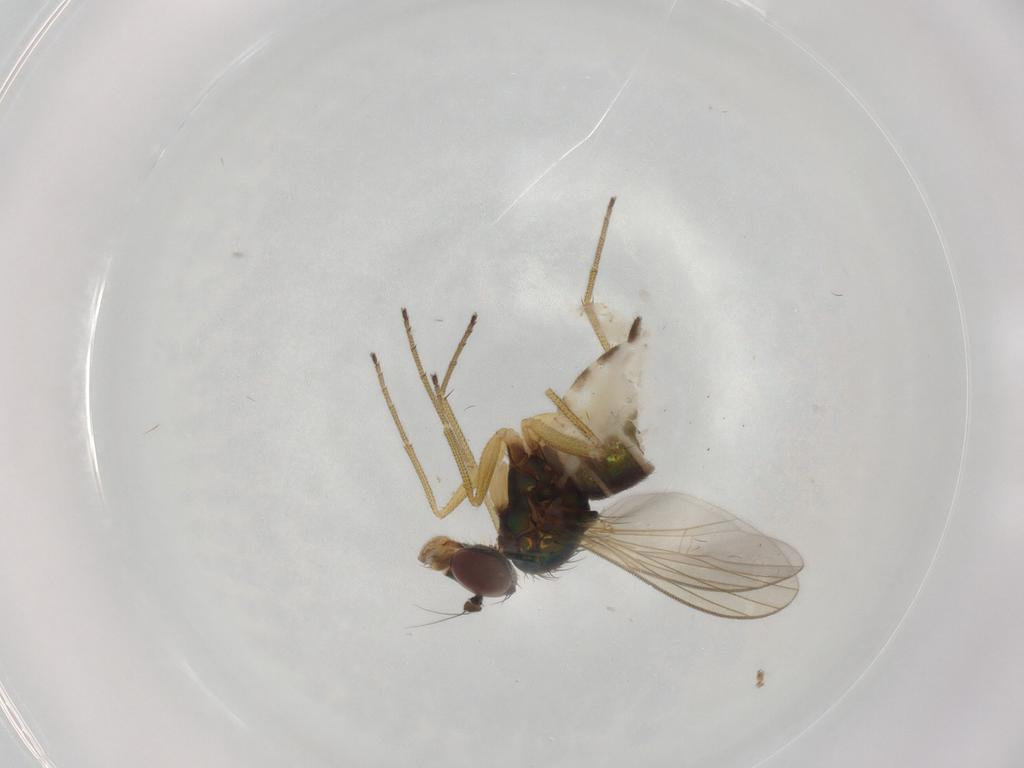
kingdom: Animalia
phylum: Arthropoda
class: Insecta
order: Diptera
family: Dolichopodidae
